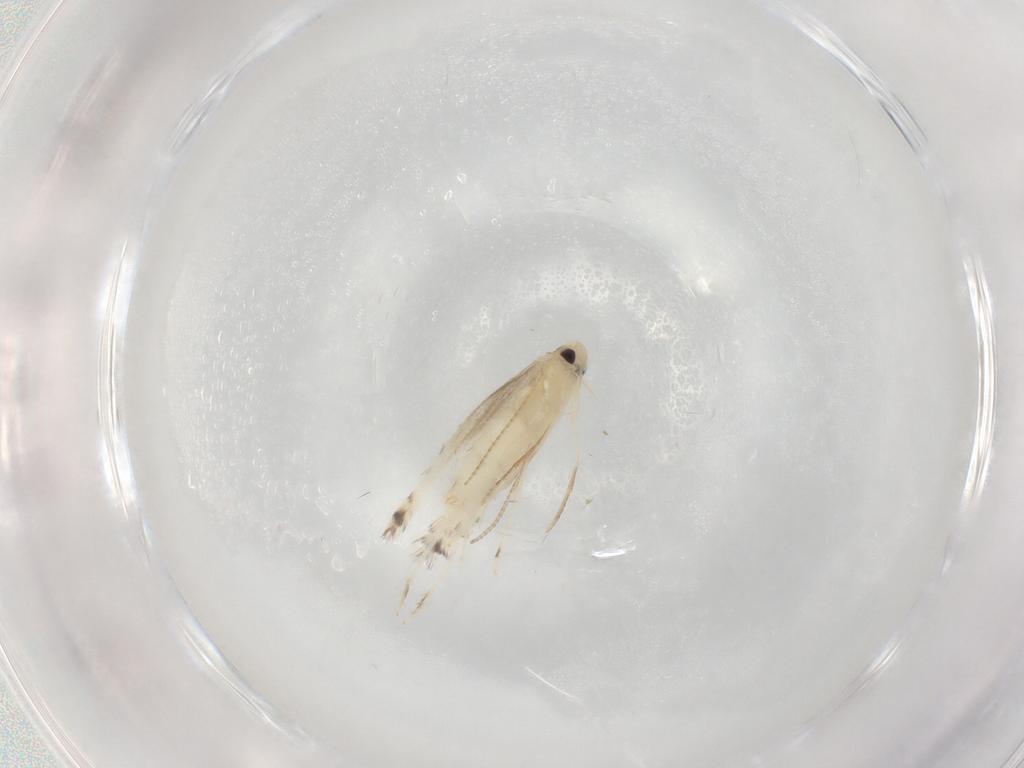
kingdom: Animalia
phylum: Arthropoda
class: Insecta
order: Lepidoptera
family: Gracillariidae
